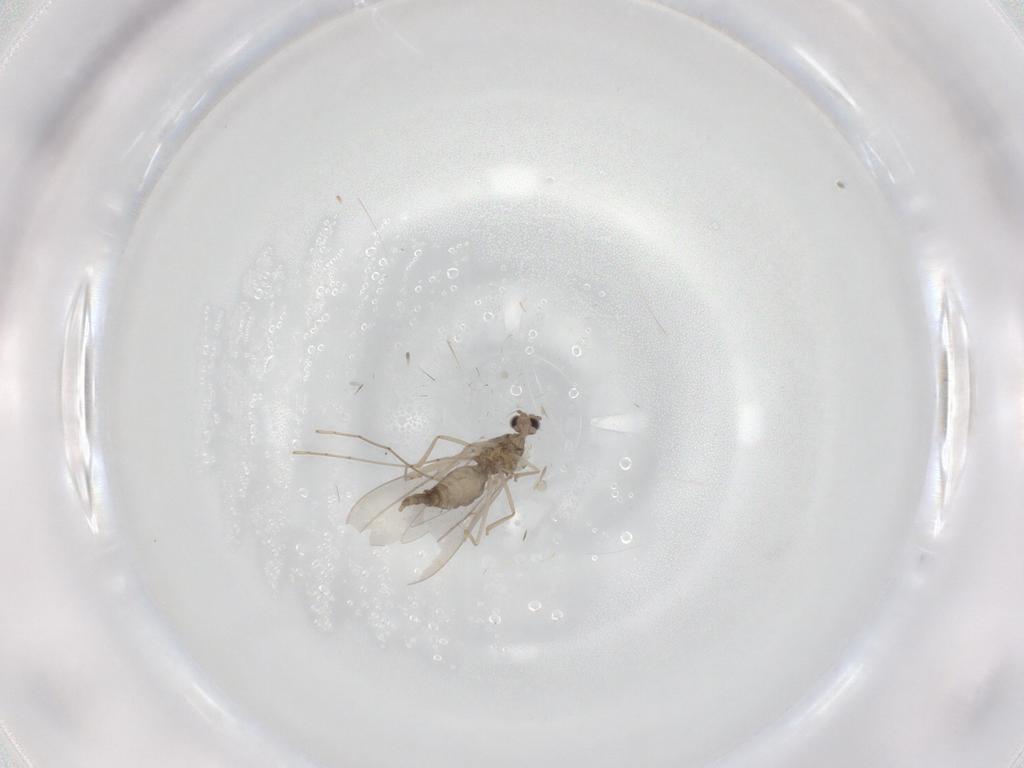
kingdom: Animalia
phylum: Arthropoda
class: Insecta
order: Diptera
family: Cecidomyiidae
